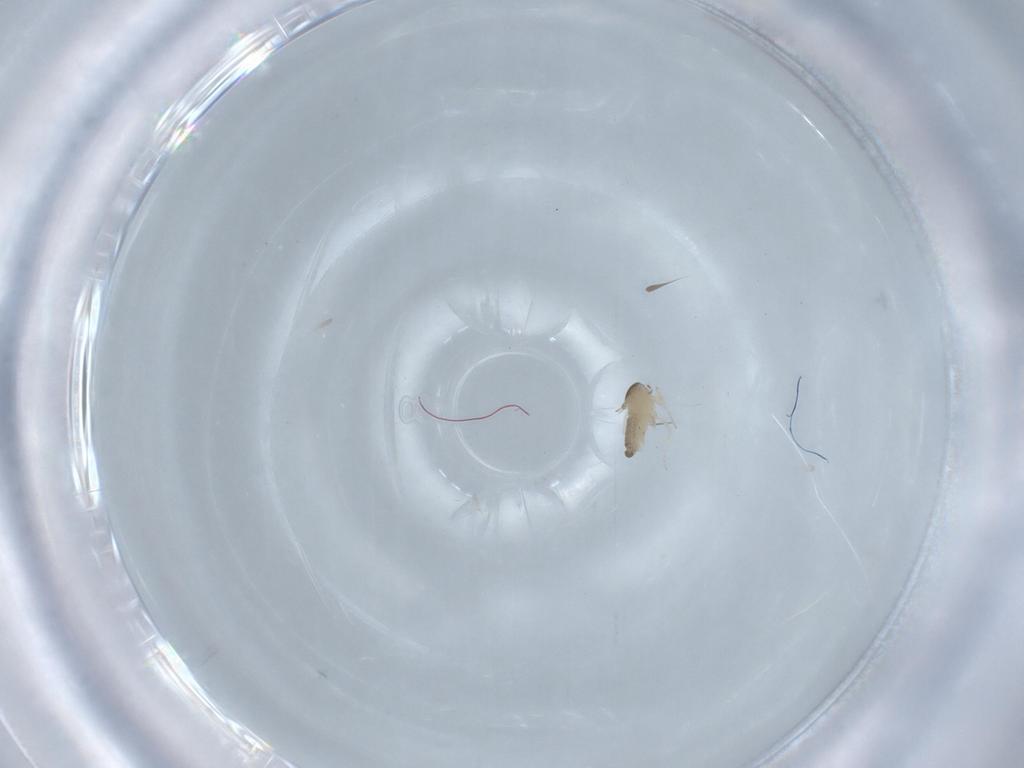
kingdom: Animalia
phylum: Arthropoda
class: Insecta
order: Diptera
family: Cecidomyiidae
